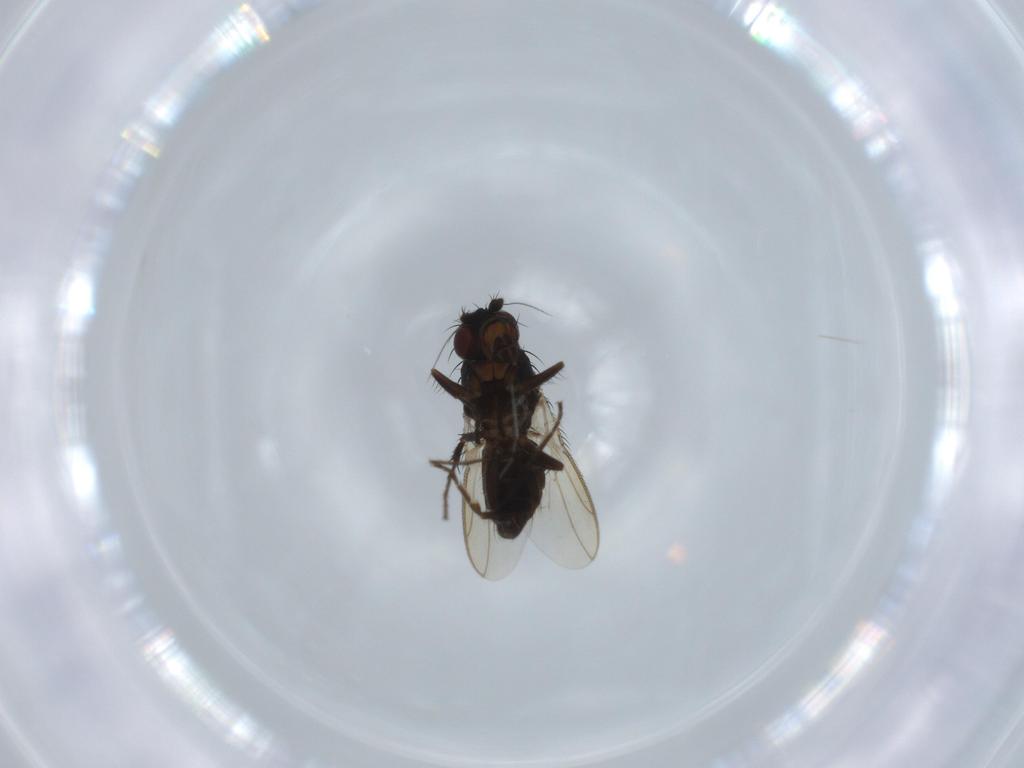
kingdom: Animalia
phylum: Arthropoda
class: Insecta
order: Diptera
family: Sphaeroceridae
